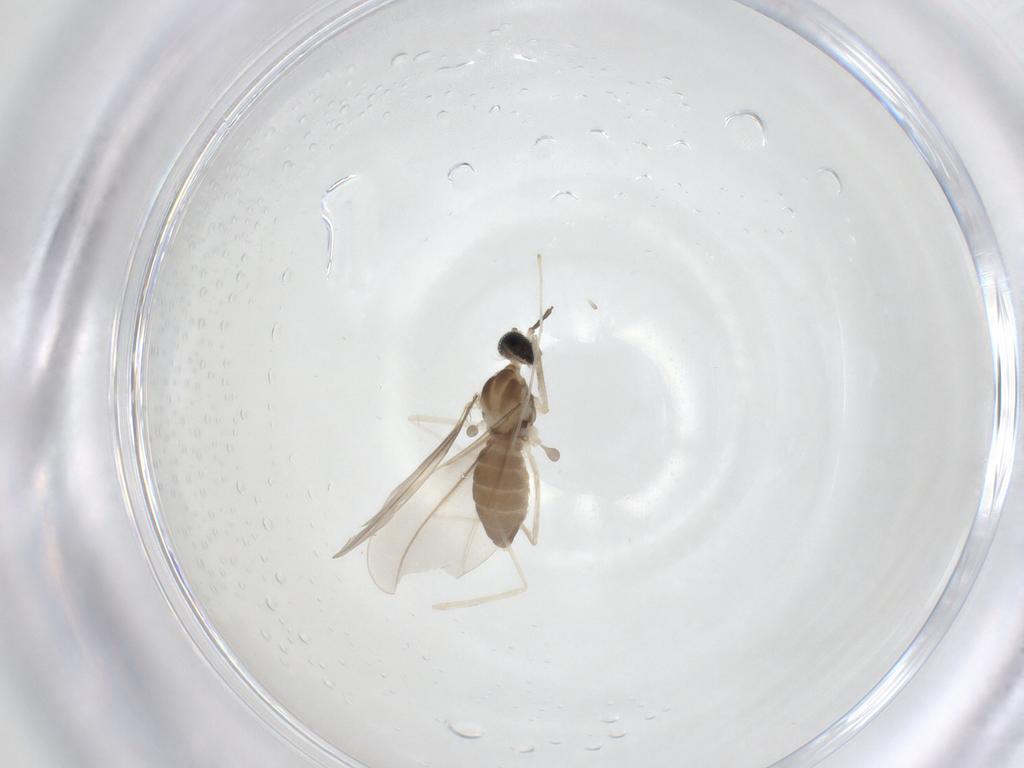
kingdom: Animalia
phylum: Arthropoda
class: Insecta
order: Diptera
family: Cecidomyiidae
